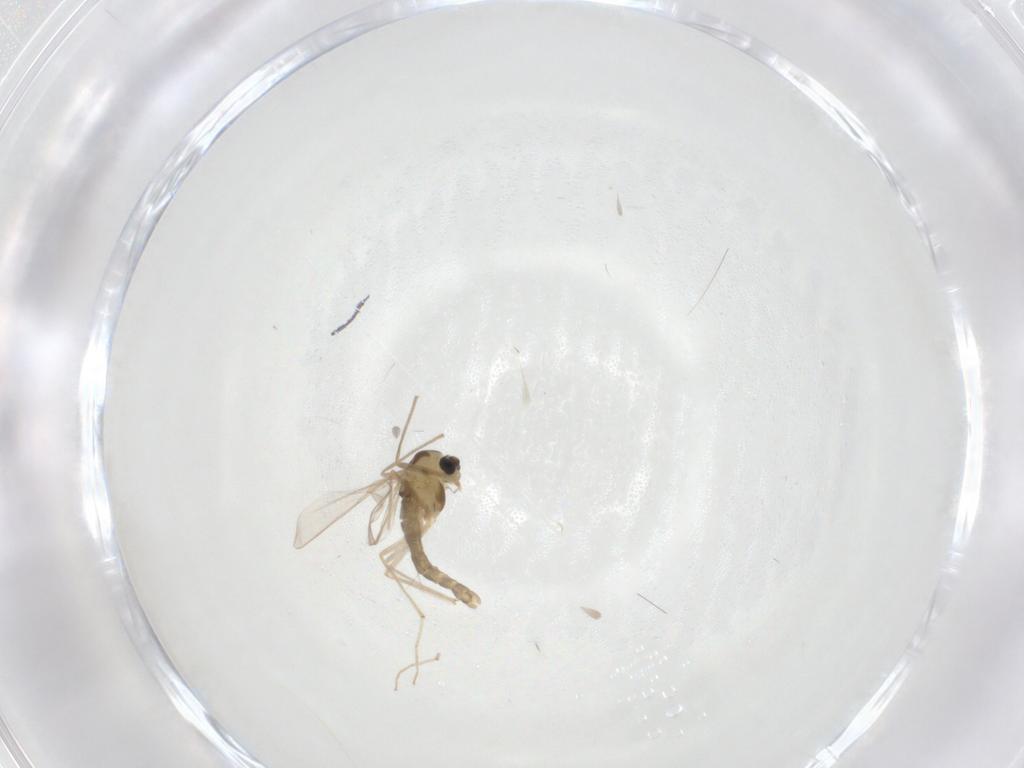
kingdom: Animalia
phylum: Arthropoda
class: Insecta
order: Diptera
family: Chironomidae
